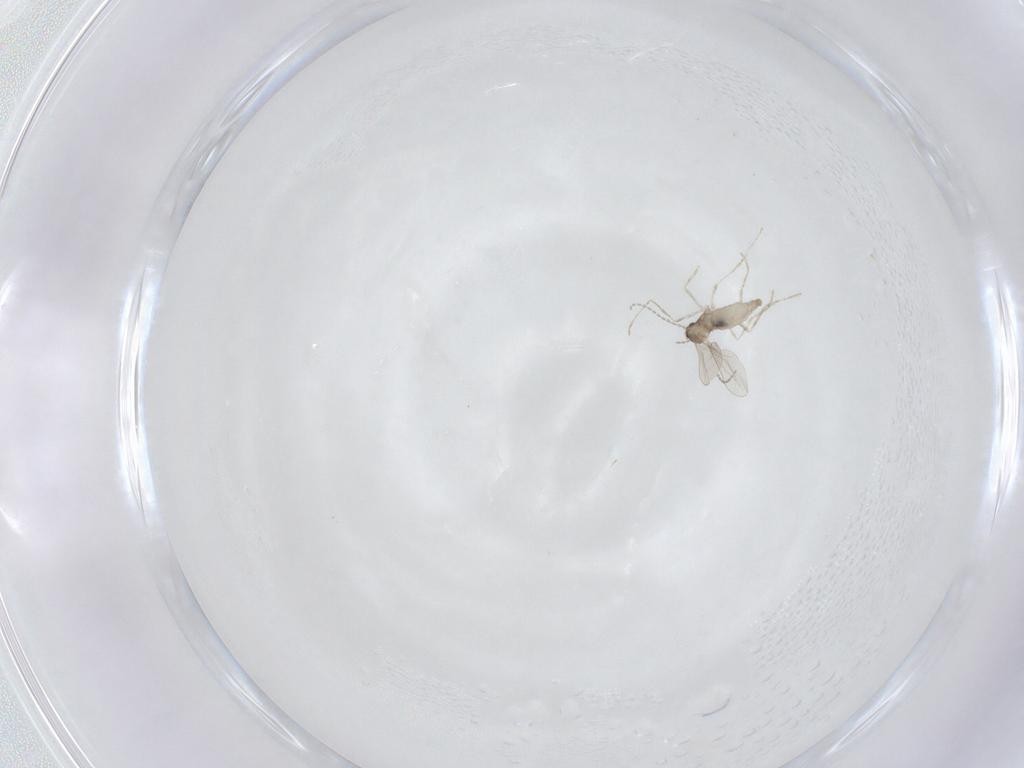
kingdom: Animalia
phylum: Arthropoda
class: Insecta
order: Diptera
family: Cecidomyiidae
